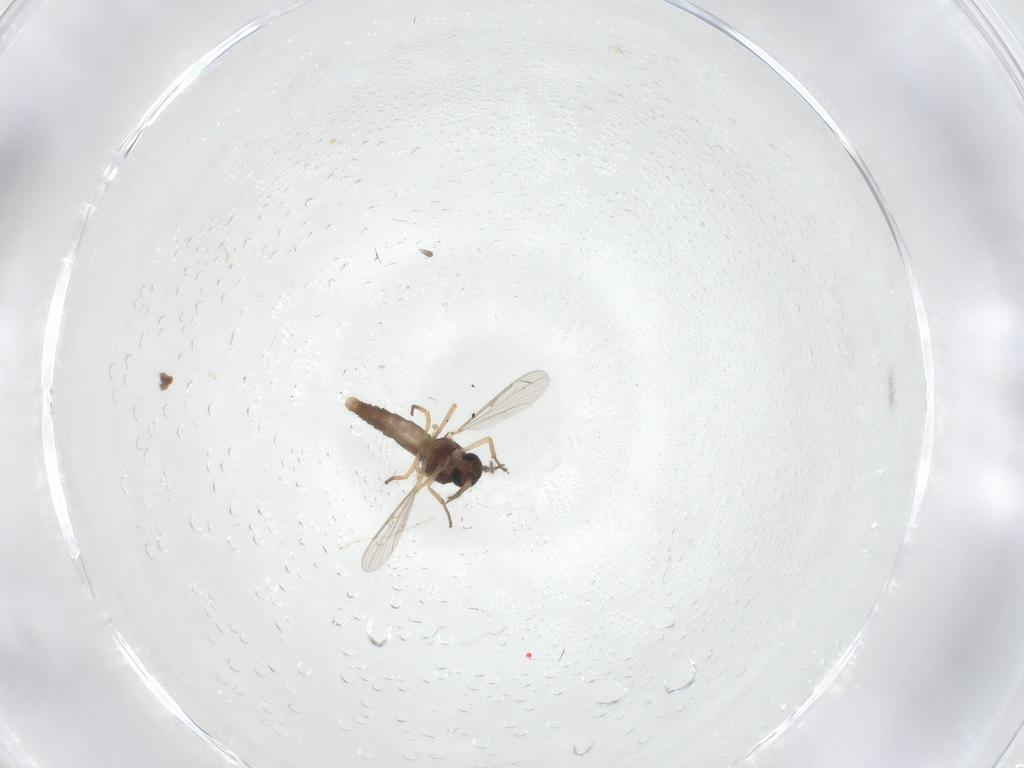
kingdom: Animalia
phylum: Arthropoda
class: Insecta
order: Diptera
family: Ceratopogonidae
